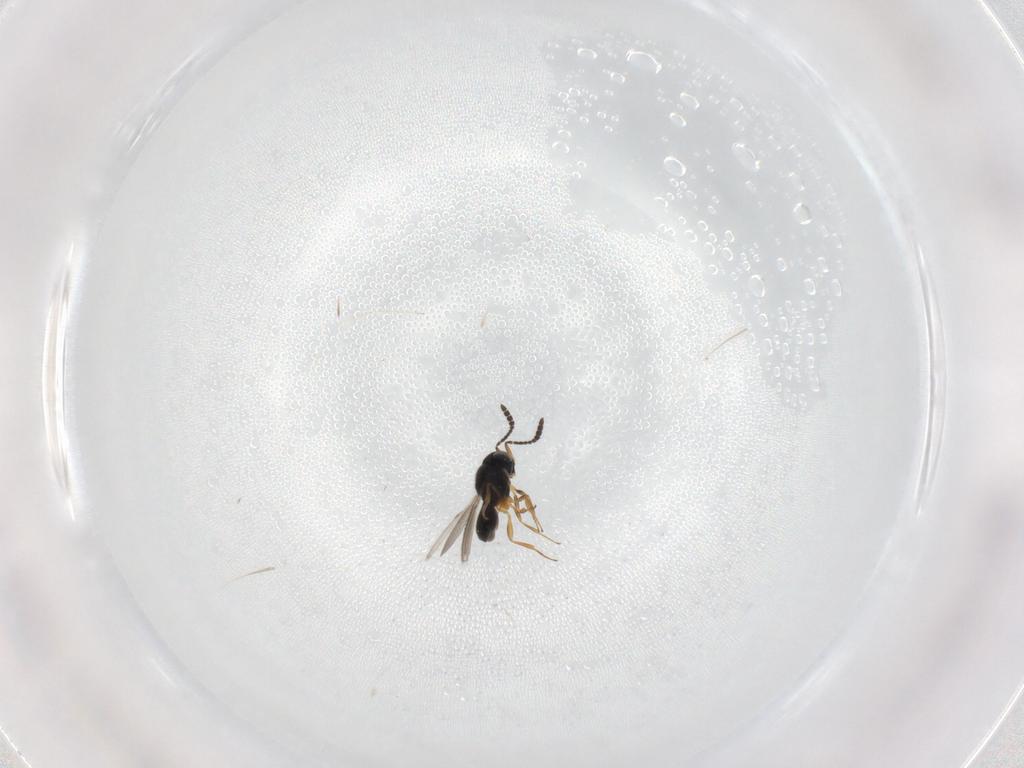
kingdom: Animalia
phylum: Arthropoda
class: Insecta
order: Hymenoptera
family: Scelionidae
